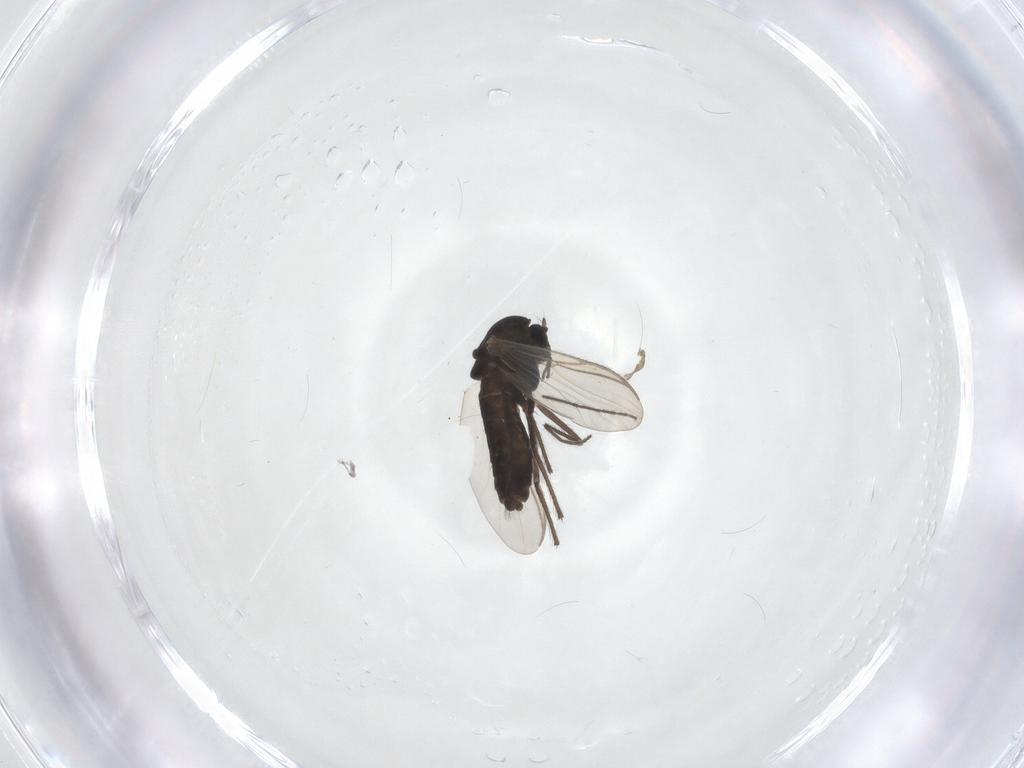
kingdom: Animalia
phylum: Arthropoda
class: Insecta
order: Diptera
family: Chironomidae
